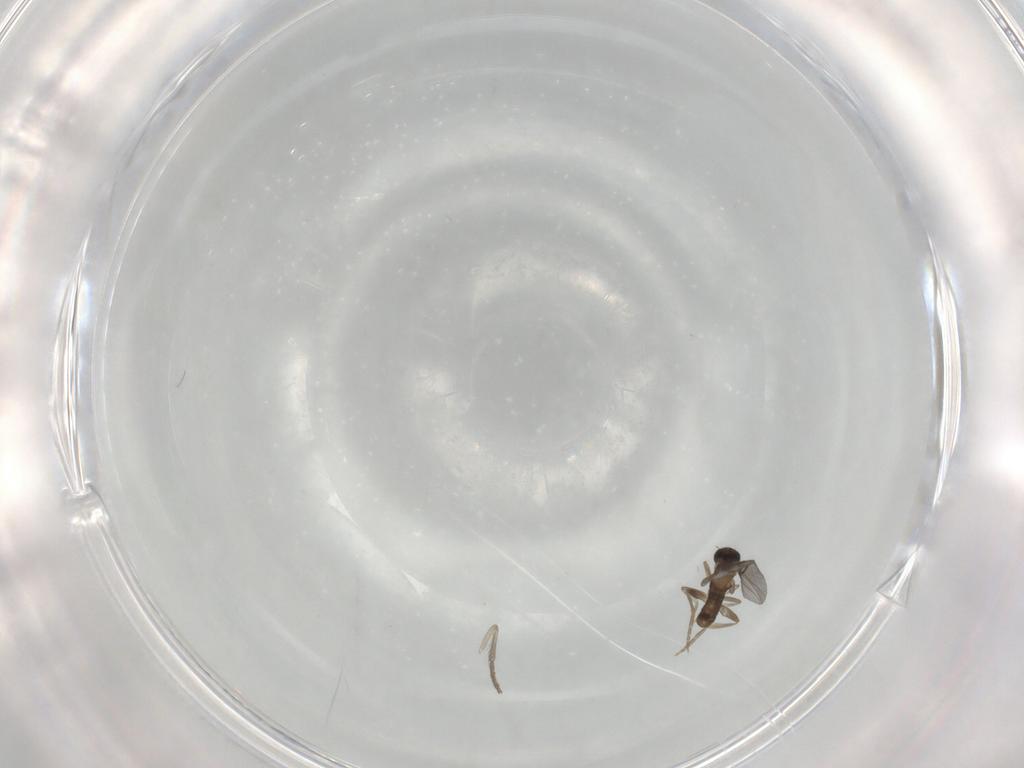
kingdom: Animalia
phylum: Arthropoda
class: Insecta
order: Diptera
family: Phoridae
